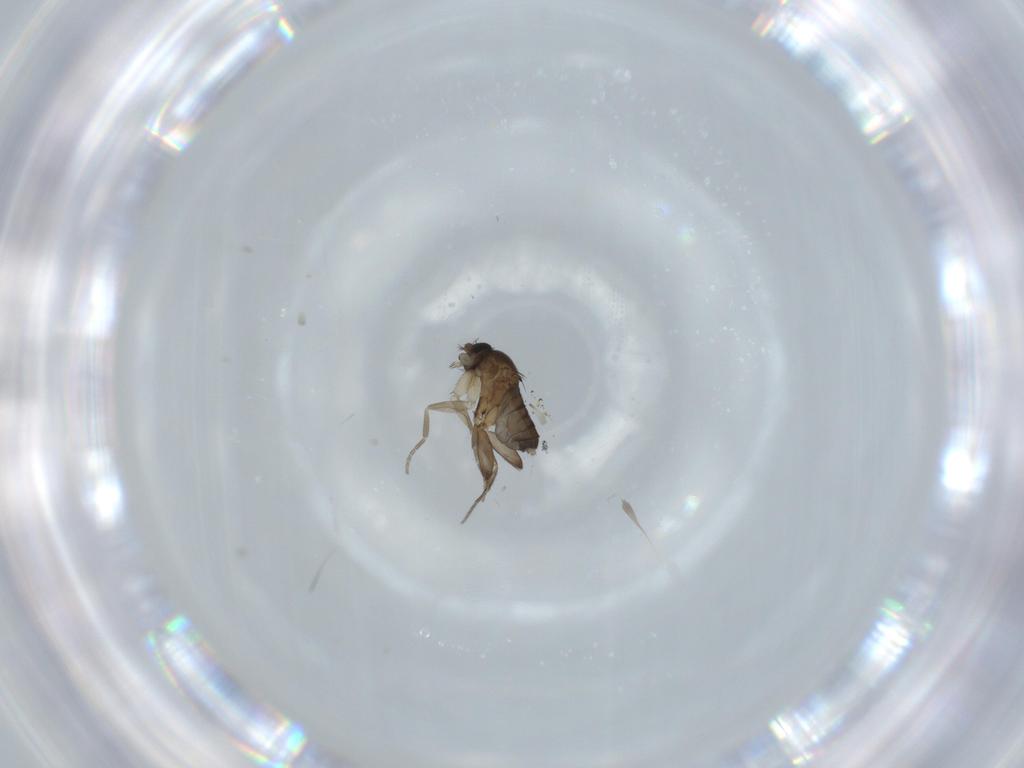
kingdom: Animalia
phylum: Arthropoda
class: Insecta
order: Diptera
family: Phoridae
